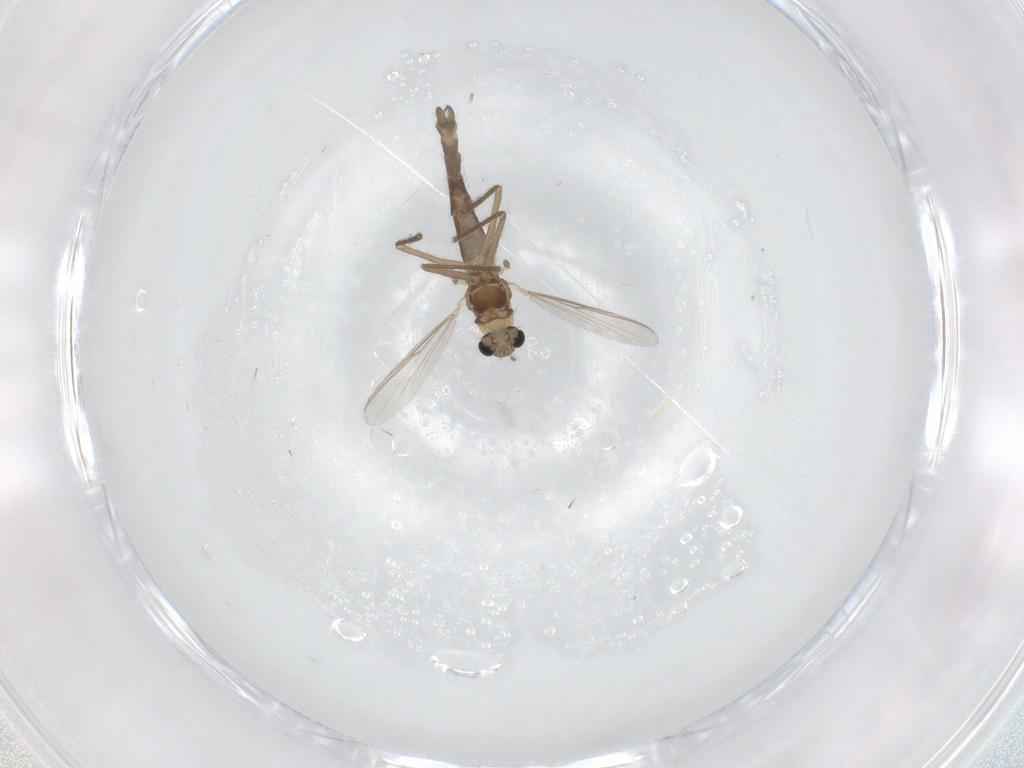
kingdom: Animalia
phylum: Arthropoda
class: Insecta
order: Diptera
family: Chironomidae
